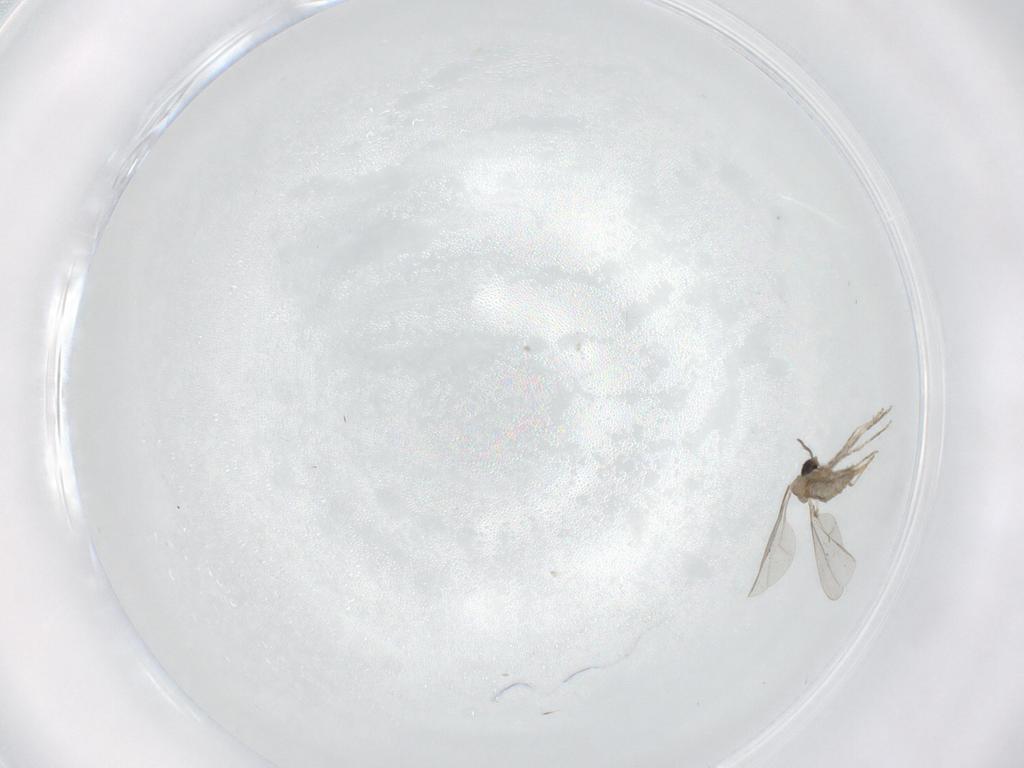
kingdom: Animalia
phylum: Arthropoda
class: Insecta
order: Diptera
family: Cecidomyiidae
